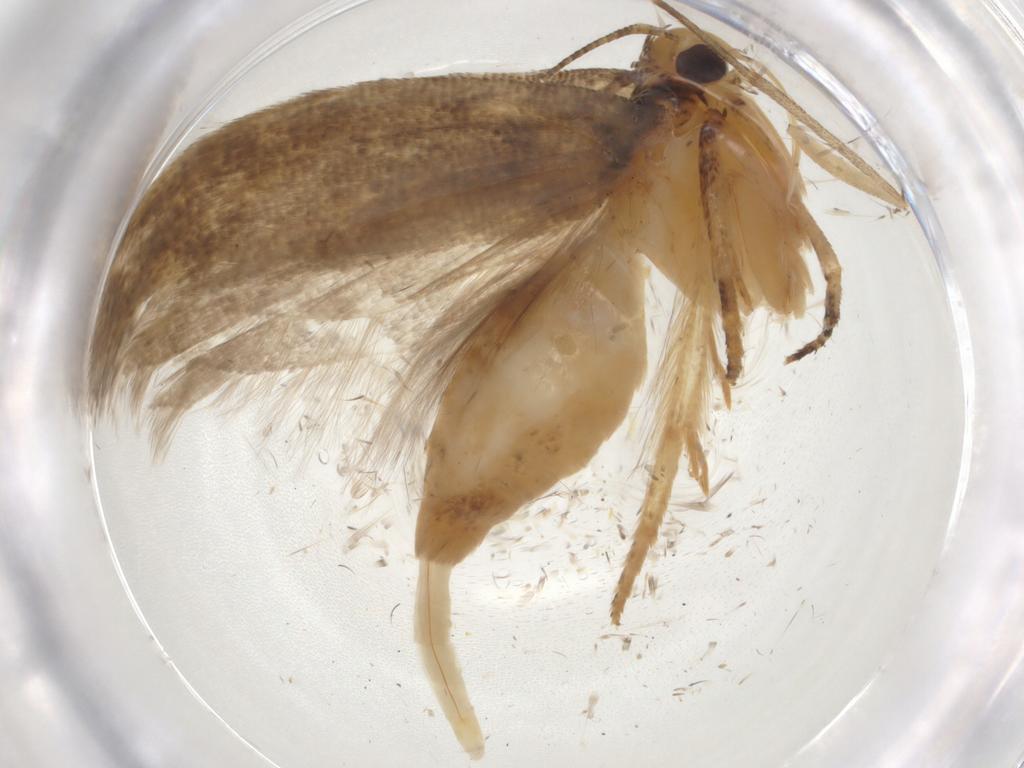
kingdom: Animalia
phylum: Arthropoda
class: Insecta
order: Lepidoptera
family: Gelechiidae
